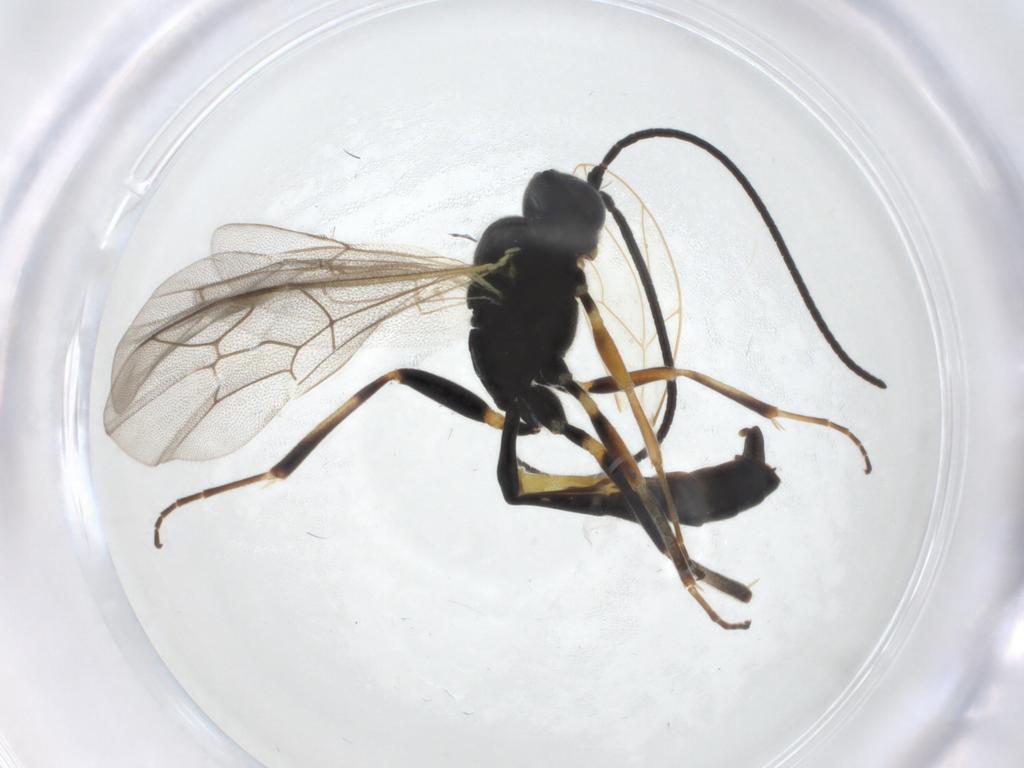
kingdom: Animalia
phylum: Arthropoda
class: Insecta
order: Hymenoptera
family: Ichneumonidae
